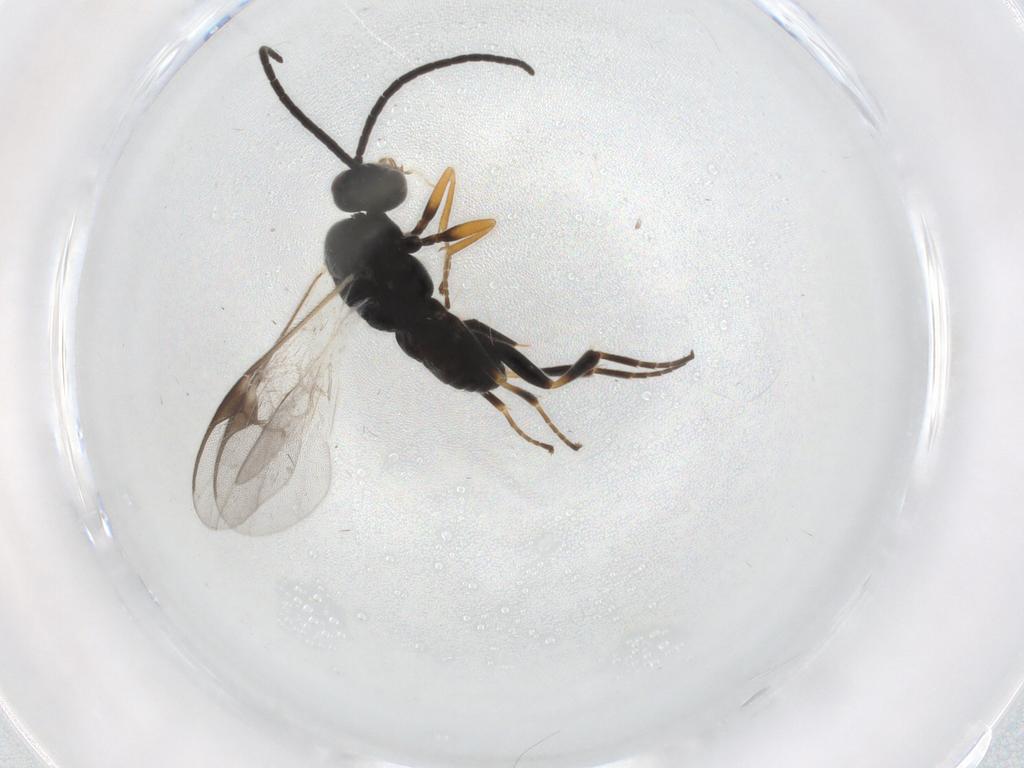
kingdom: Animalia
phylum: Arthropoda
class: Insecta
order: Hymenoptera
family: Braconidae
